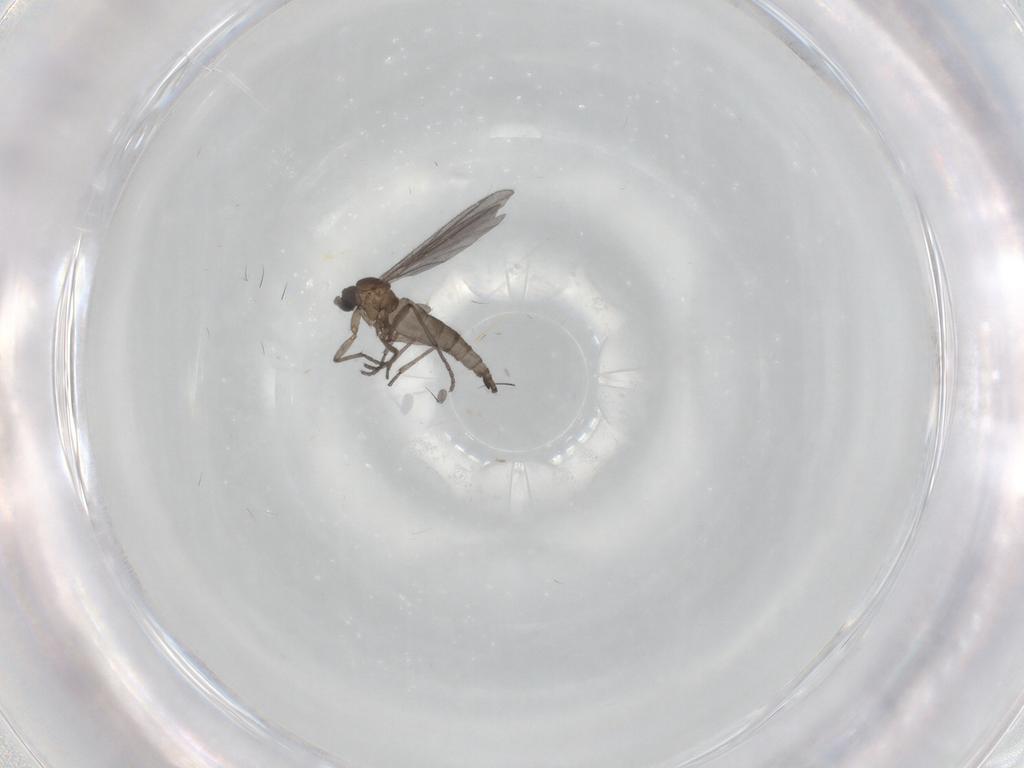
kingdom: Animalia
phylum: Arthropoda
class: Insecta
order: Diptera
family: Sciaridae
